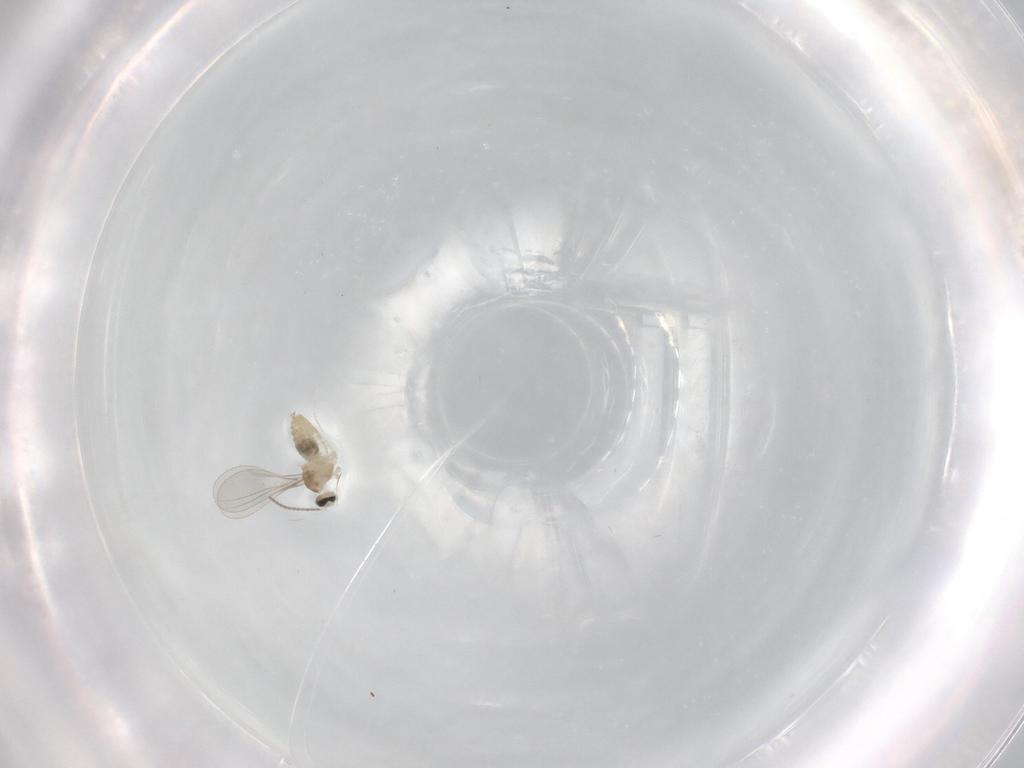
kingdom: Animalia
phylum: Arthropoda
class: Insecta
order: Diptera
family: Cecidomyiidae
